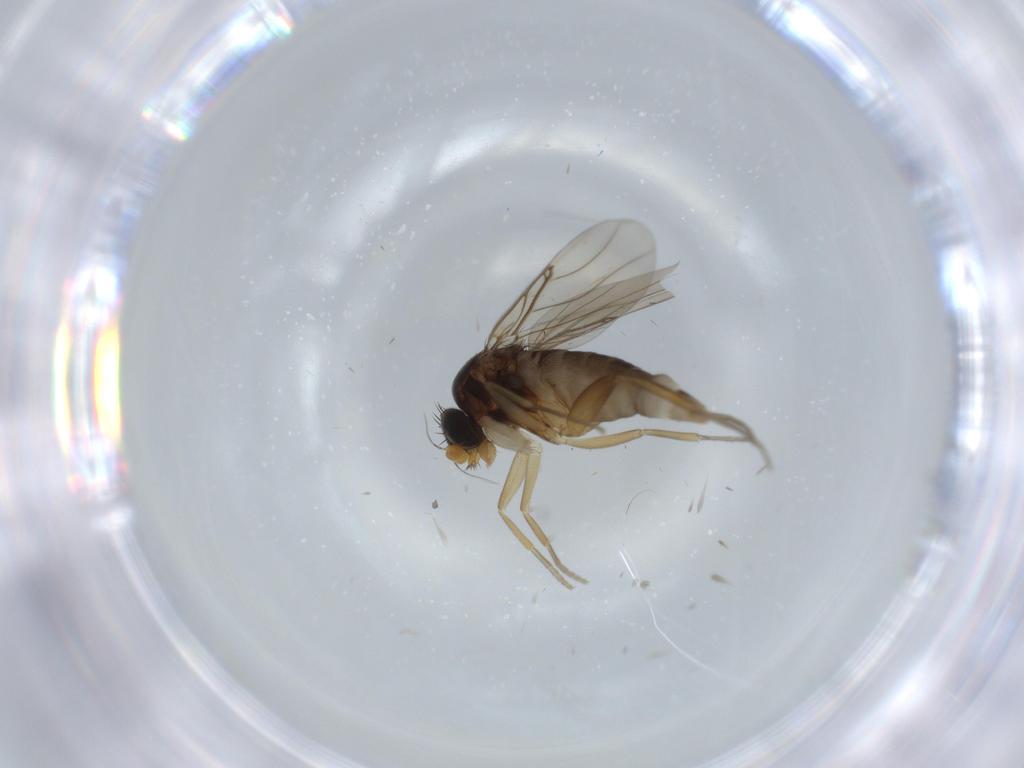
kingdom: Animalia
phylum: Arthropoda
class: Insecta
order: Diptera
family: Phoridae
